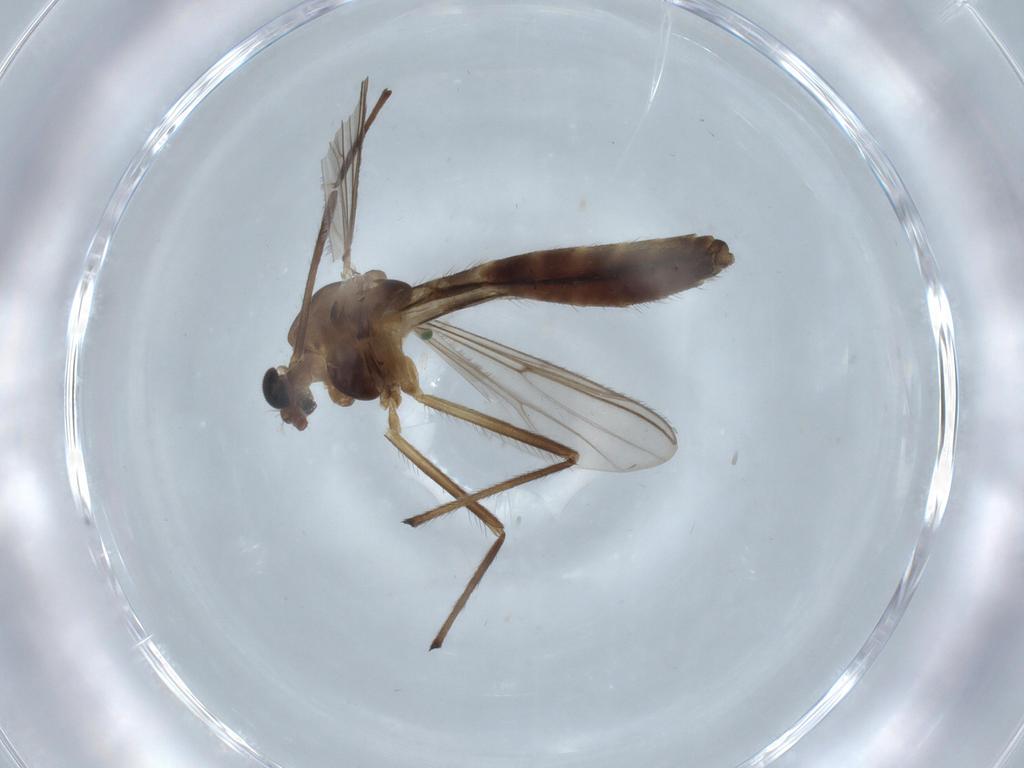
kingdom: Animalia
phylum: Arthropoda
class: Insecta
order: Diptera
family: Chironomidae
